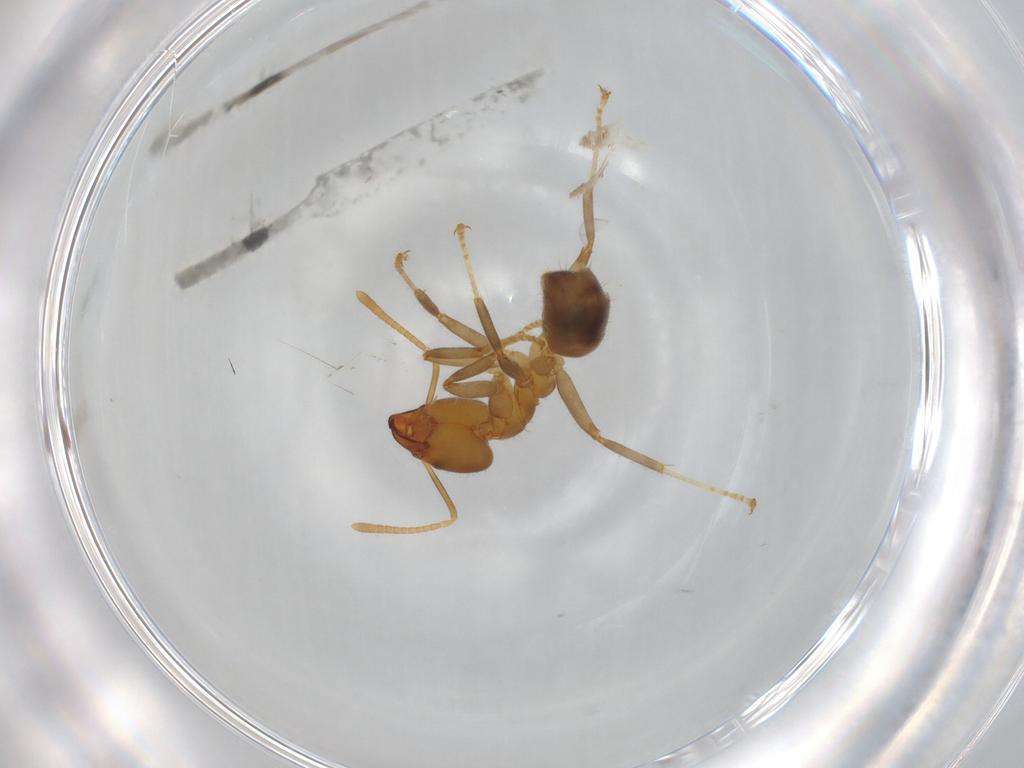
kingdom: Animalia
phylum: Arthropoda
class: Insecta
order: Hymenoptera
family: Formicidae
